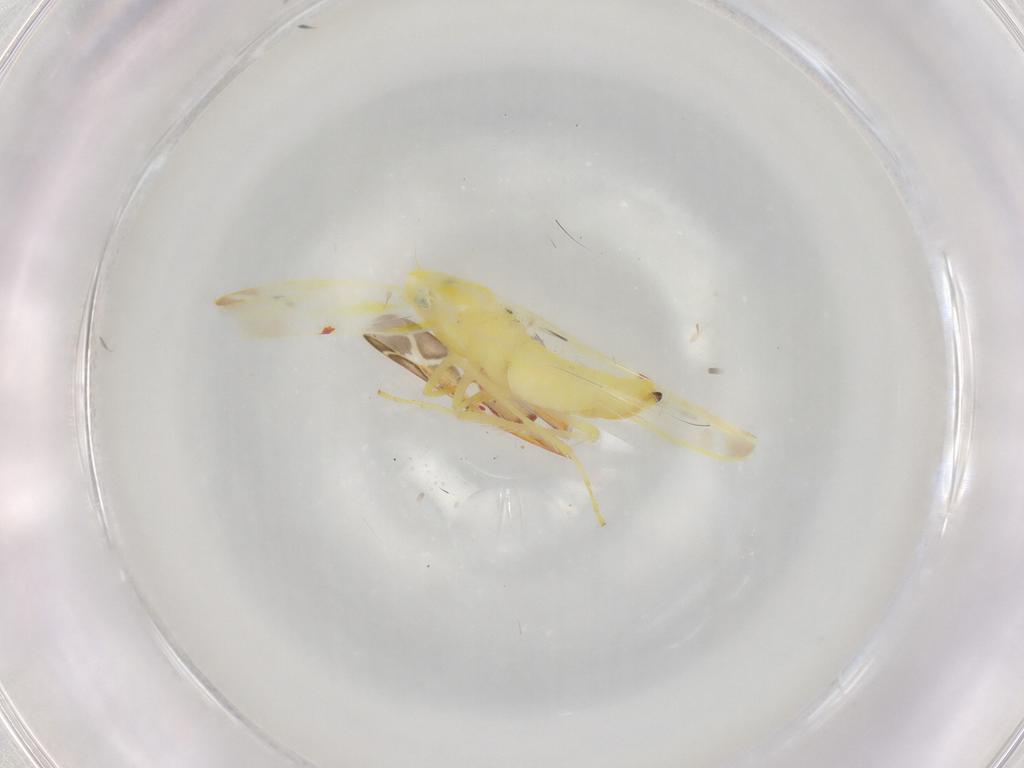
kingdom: Animalia
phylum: Arthropoda
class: Insecta
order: Hemiptera
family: Cicadellidae
